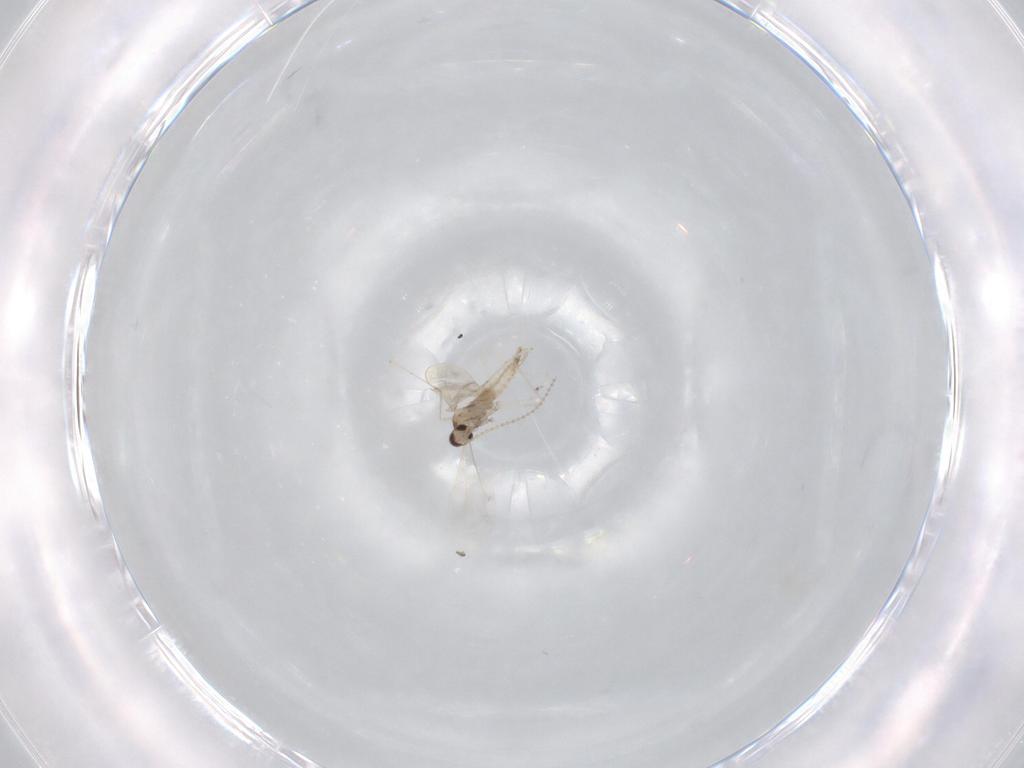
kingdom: Animalia
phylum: Arthropoda
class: Insecta
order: Diptera
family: Cecidomyiidae
